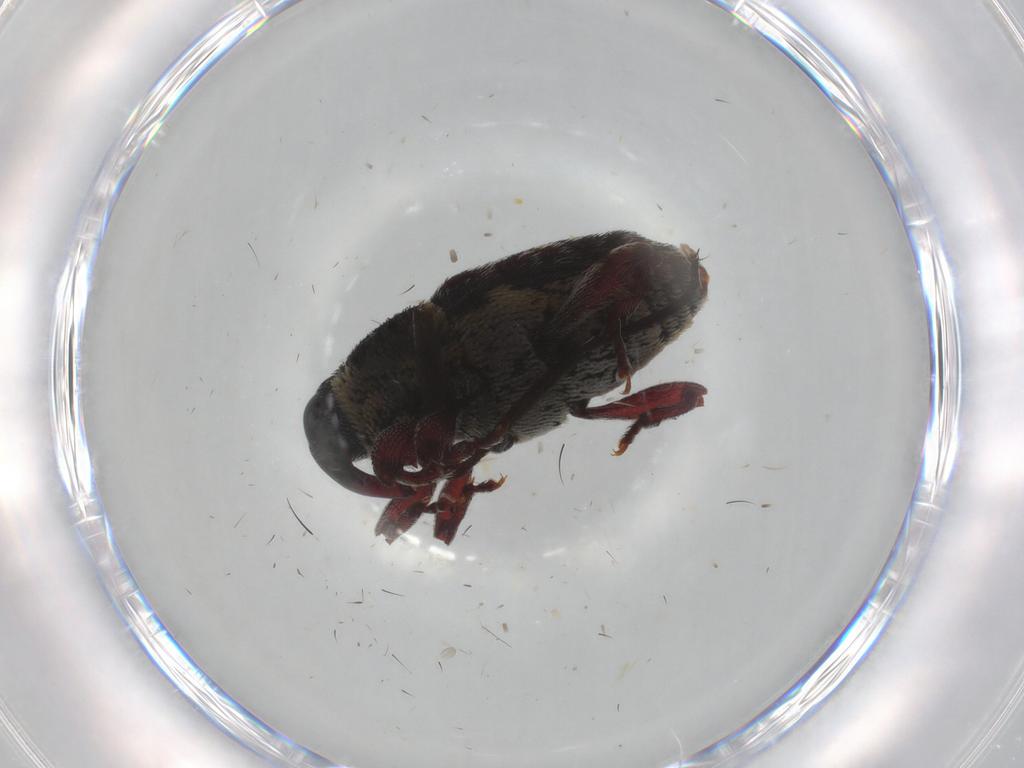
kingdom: Animalia
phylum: Arthropoda
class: Insecta
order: Coleoptera
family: Curculionidae
